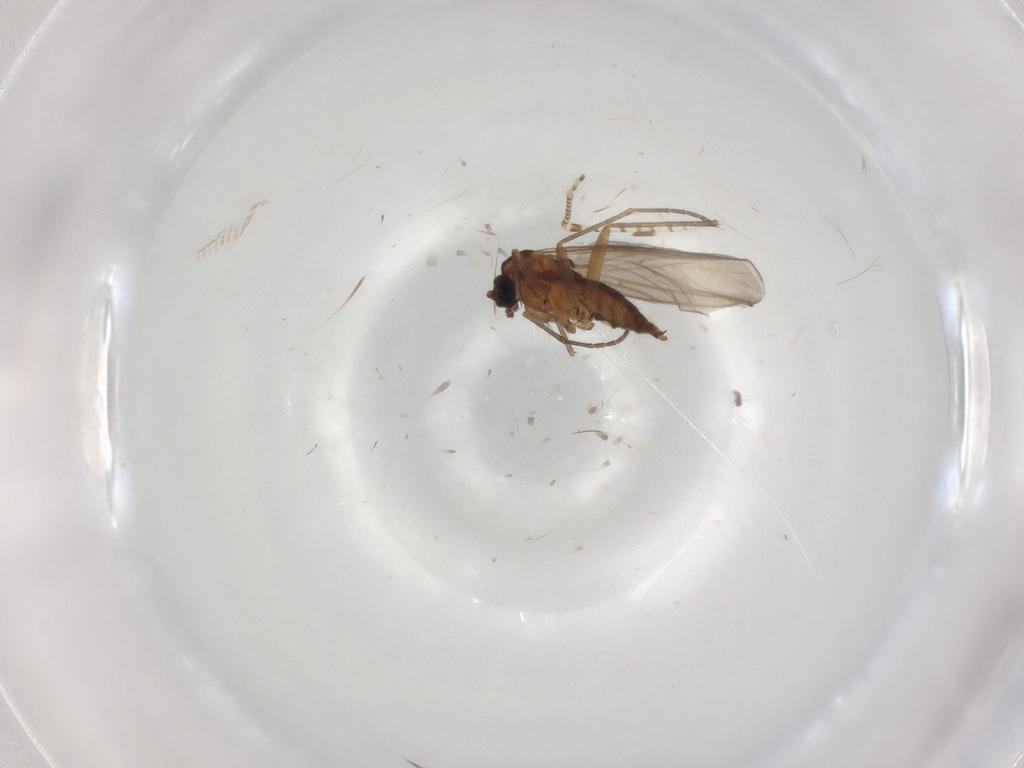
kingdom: Animalia
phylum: Arthropoda
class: Insecta
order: Diptera
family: Chaoboridae
